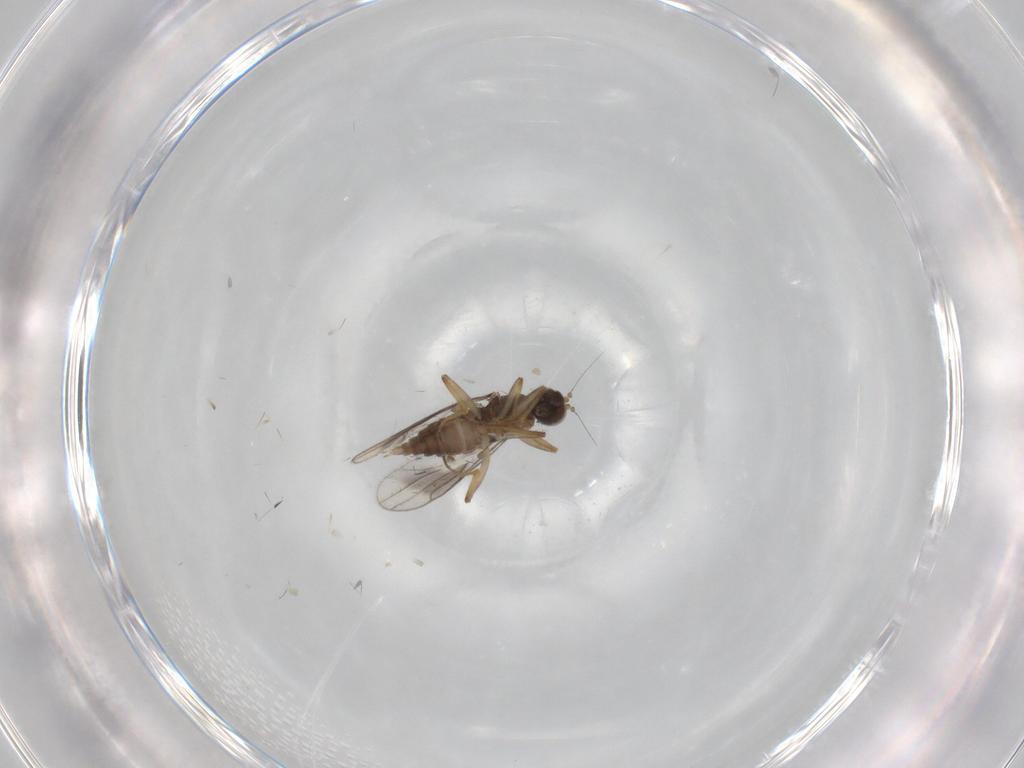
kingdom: Animalia
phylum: Arthropoda
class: Insecta
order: Diptera
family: Hybotidae
